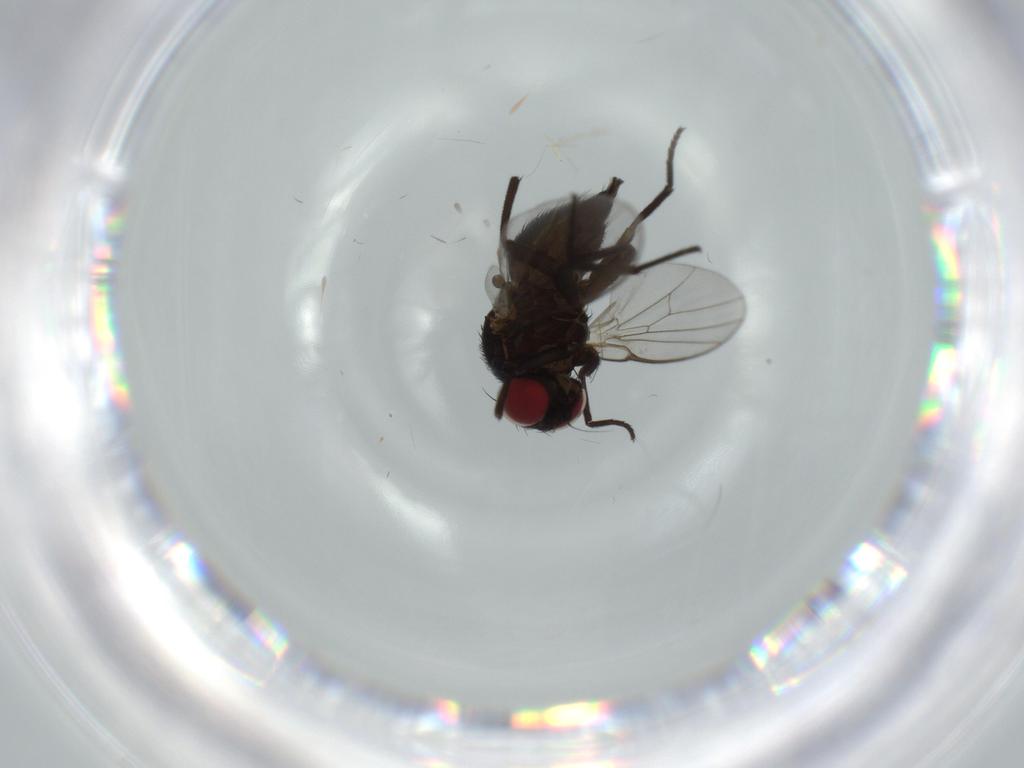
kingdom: Animalia
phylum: Arthropoda
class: Insecta
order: Diptera
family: Agromyzidae
